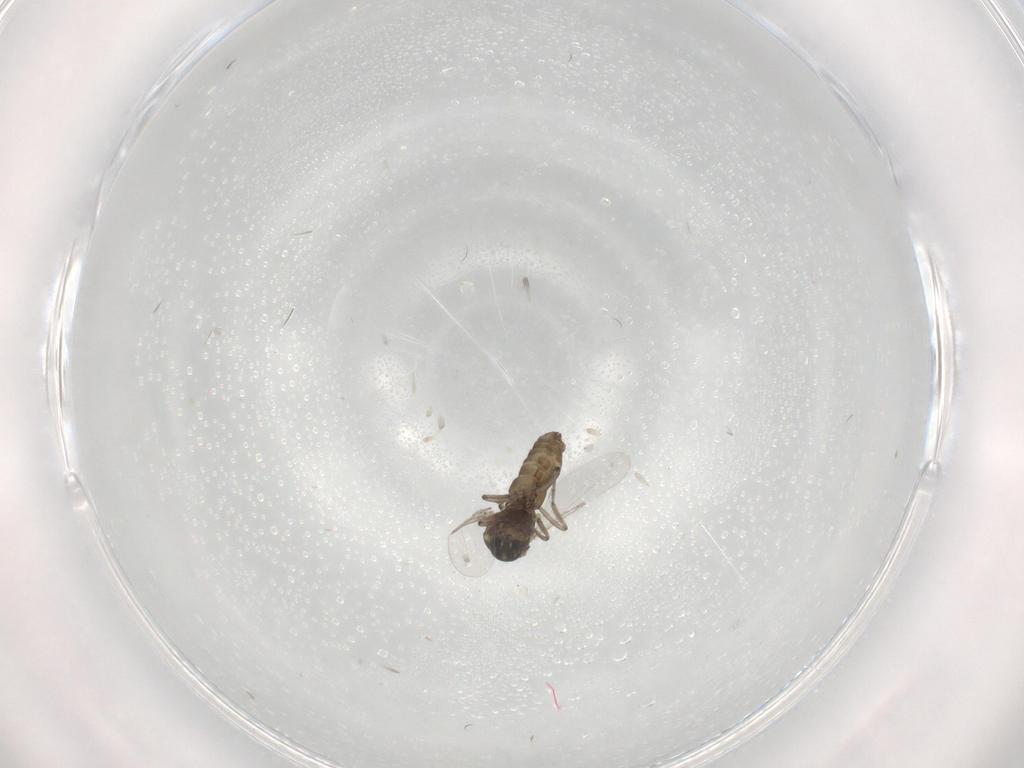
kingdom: Animalia
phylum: Arthropoda
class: Insecta
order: Diptera
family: Ceratopogonidae
